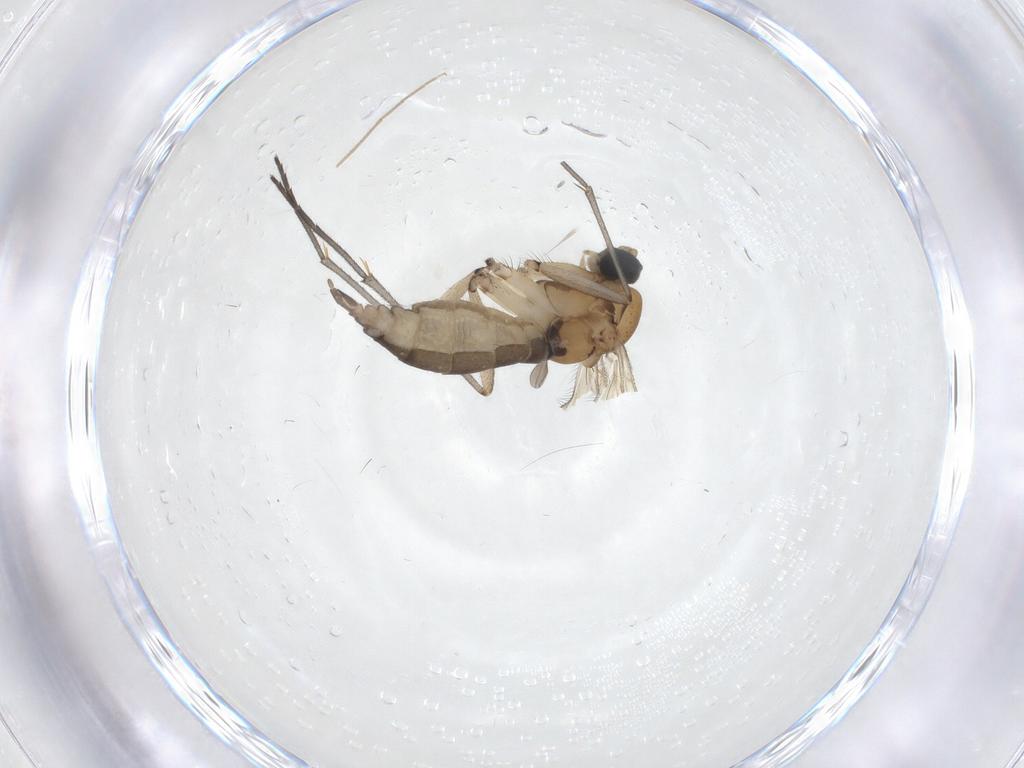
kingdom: Animalia
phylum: Arthropoda
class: Insecta
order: Diptera
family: Sciaridae
